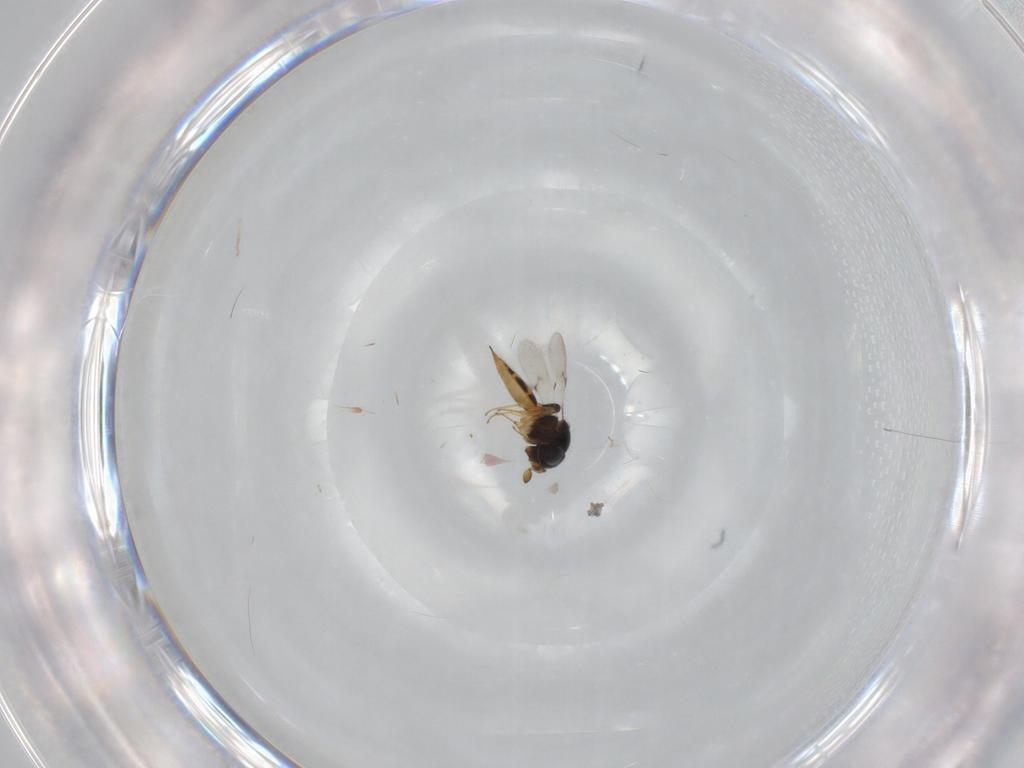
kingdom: Animalia
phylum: Arthropoda
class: Insecta
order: Hymenoptera
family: Scelionidae
